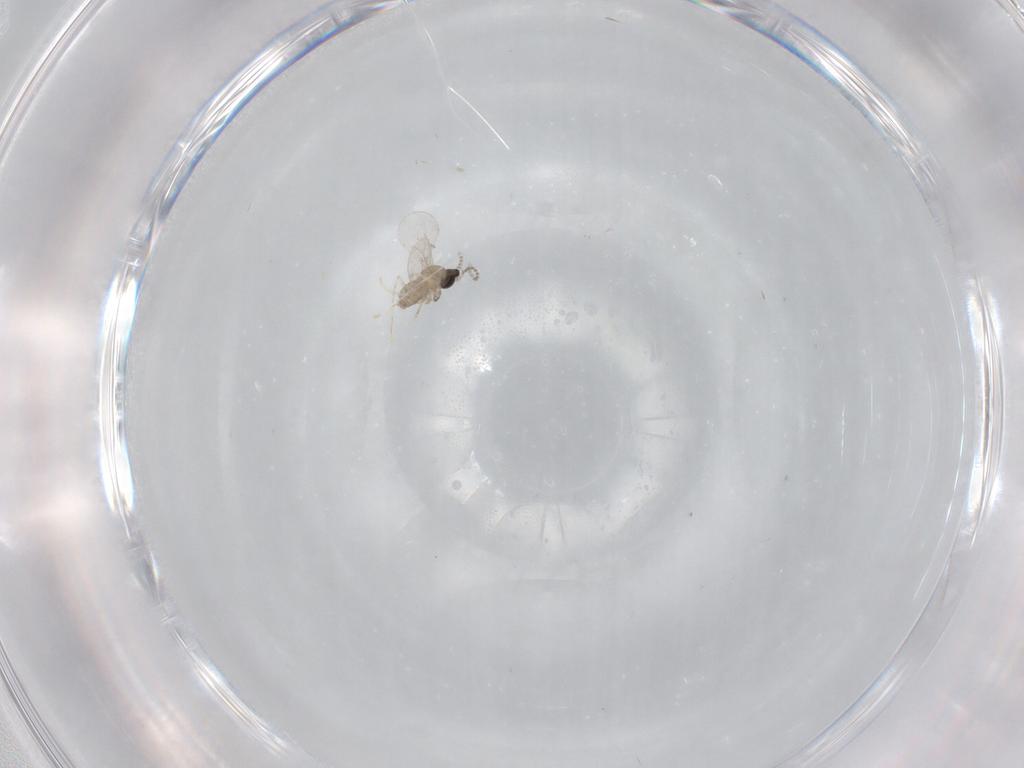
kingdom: Animalia
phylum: Arthropoda
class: Insecta
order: Diptera
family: Cecidomyiidae
